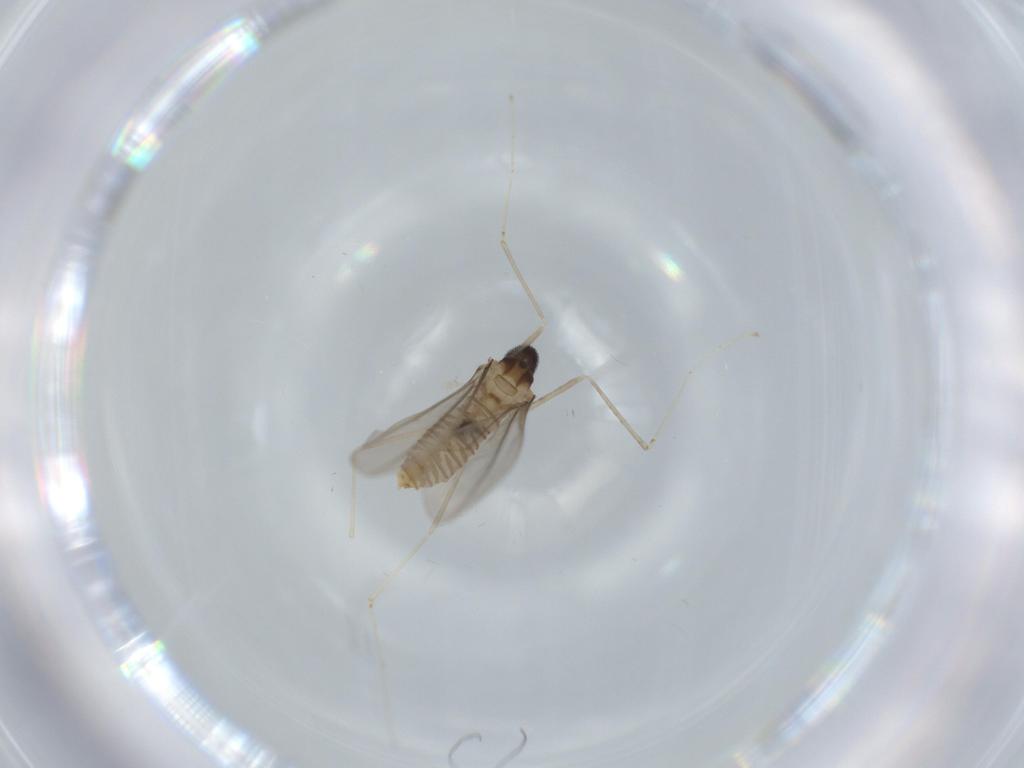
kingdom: Animalia
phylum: Arthropoda
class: Insecta
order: Diptera
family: Cecidomyiidae
